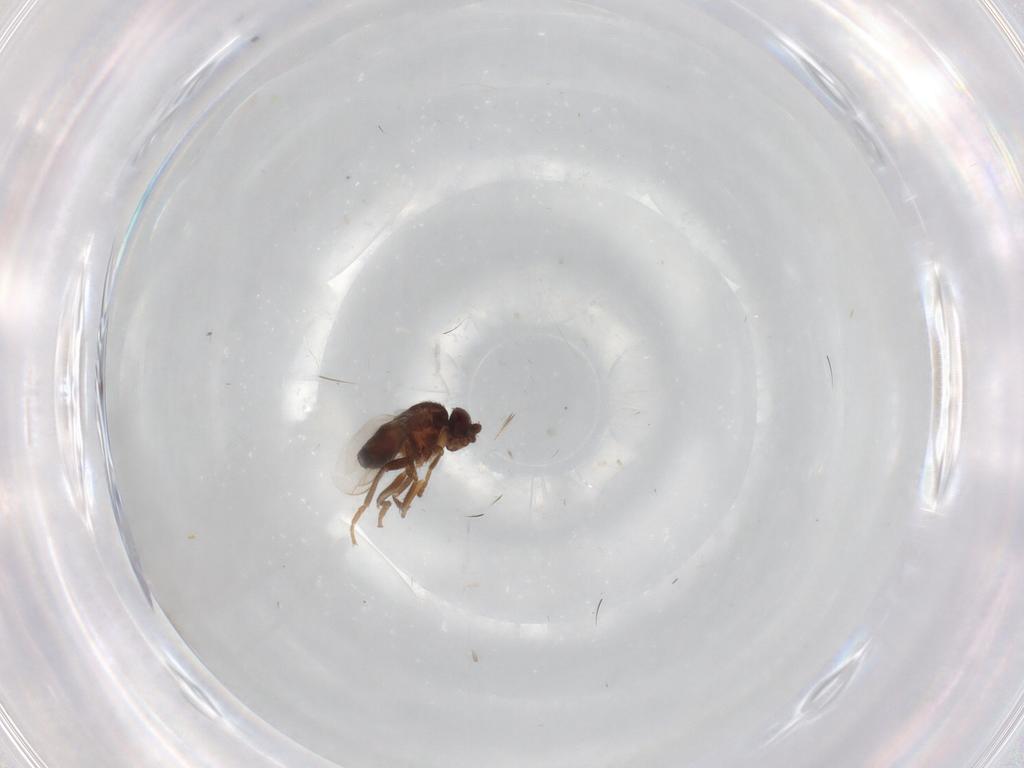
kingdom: Animalia
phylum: Arthropoda
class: Insecta
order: Diptera
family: Sphaeroceridae
